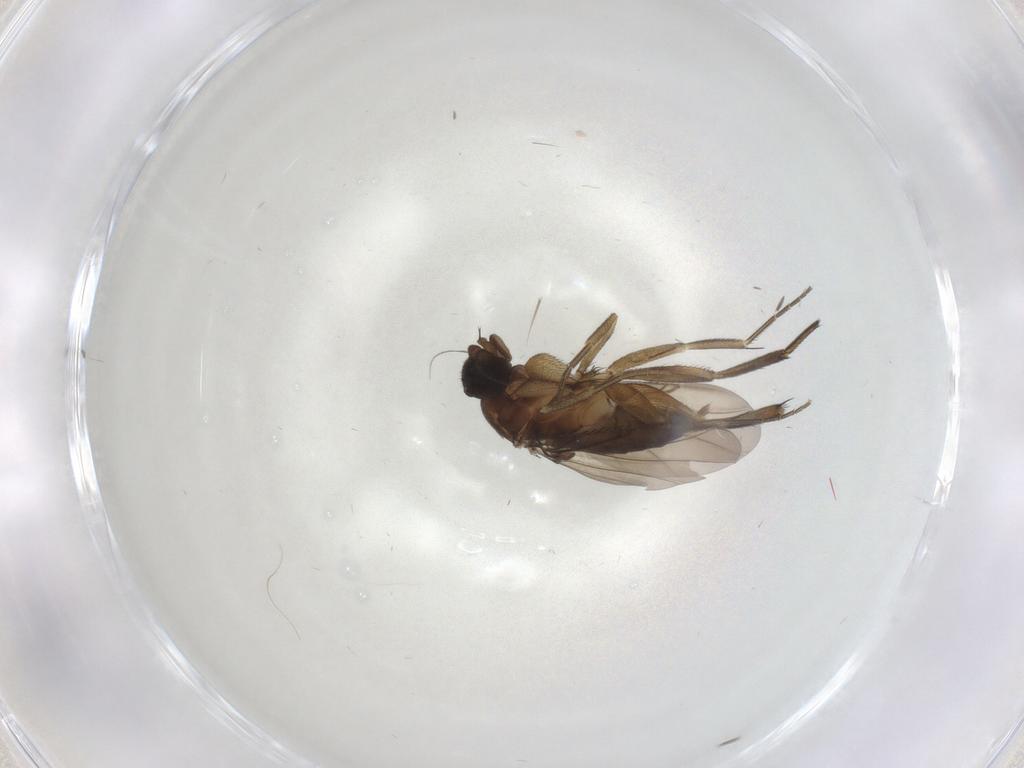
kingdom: Animalia
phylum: Arthropoda
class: Insecta
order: Diptera
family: Phoridae
